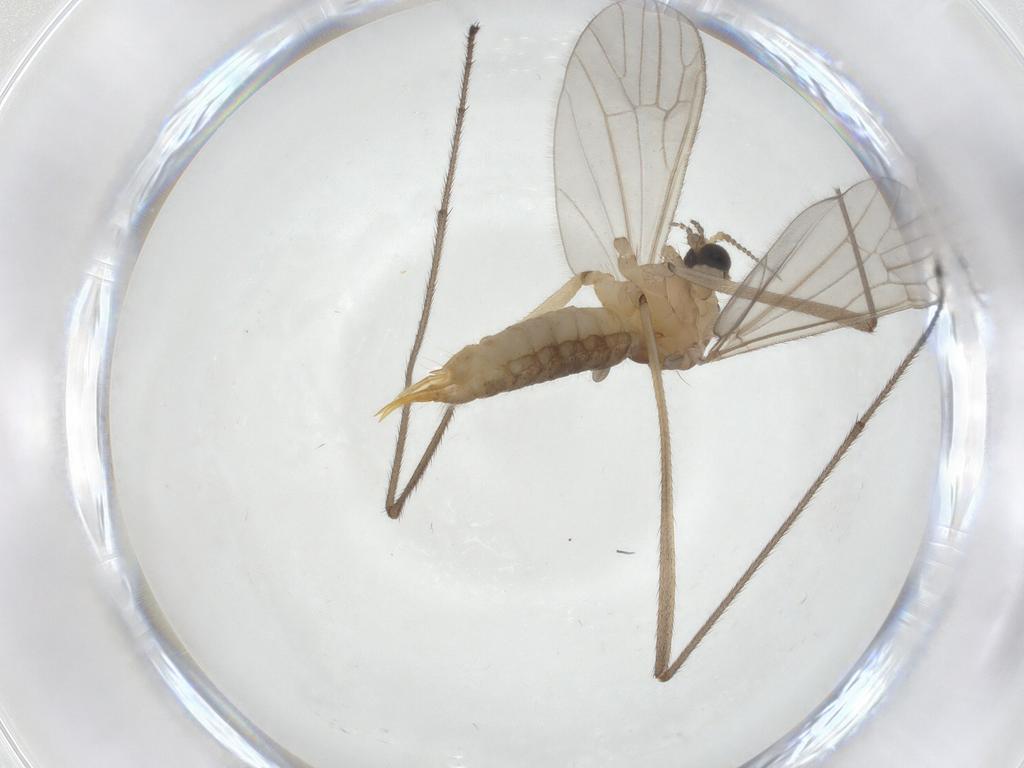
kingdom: Animalia
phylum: Arthropoda
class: Insecta
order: Diptera
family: Limoniidae
